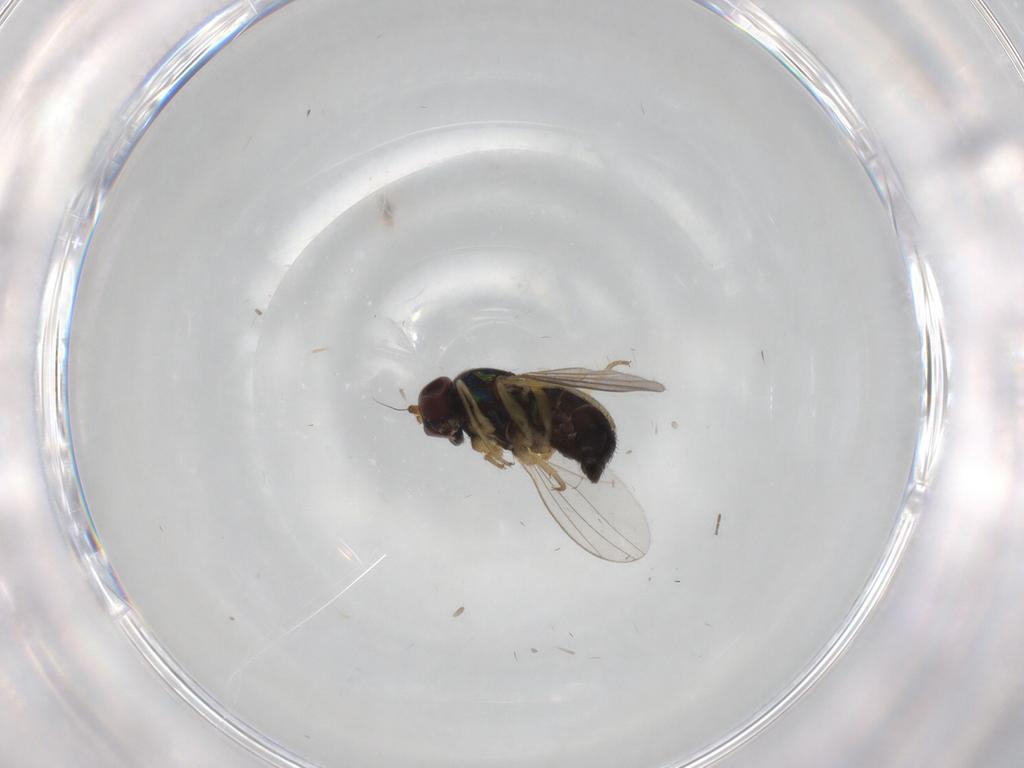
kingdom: Animalia
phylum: Arthropoda
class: Insecta
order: Diptera
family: Dolichopodidae
